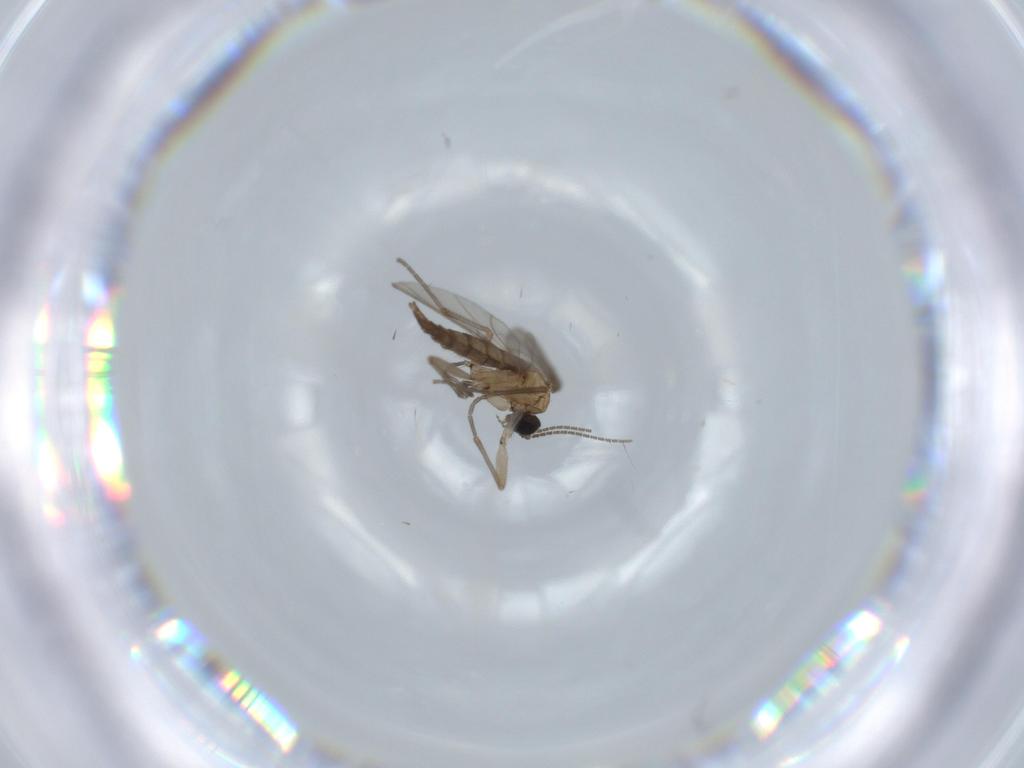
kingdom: Animalia
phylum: Arthropoda
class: Insecta
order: Diptera
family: Sciaridae
